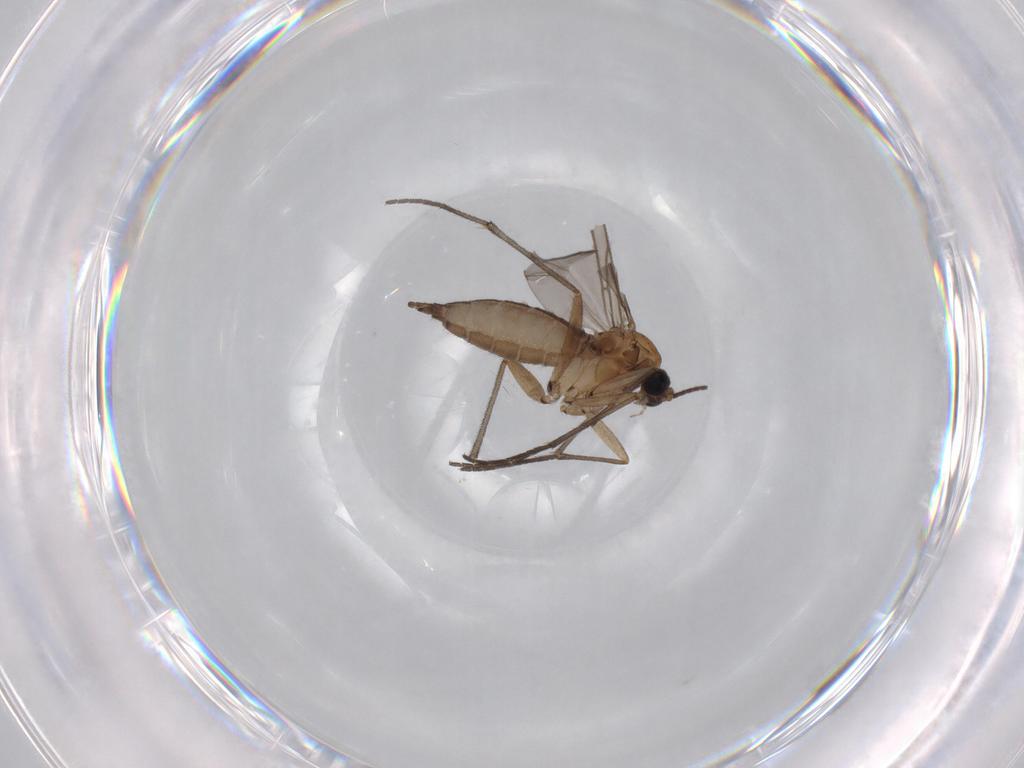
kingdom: Animalia
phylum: Arthropoda
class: Insecta
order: Diptera
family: Sciaridae
